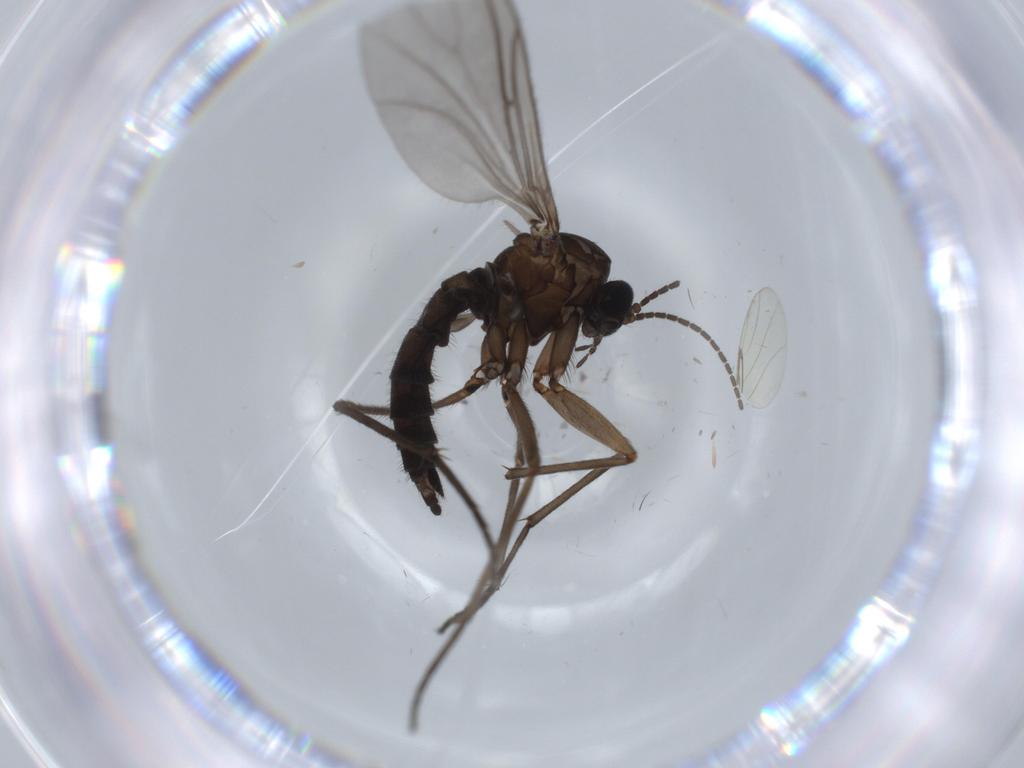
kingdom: Animalia
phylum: Arthropoda
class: Insecta
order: Diptera
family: Sciaridae
